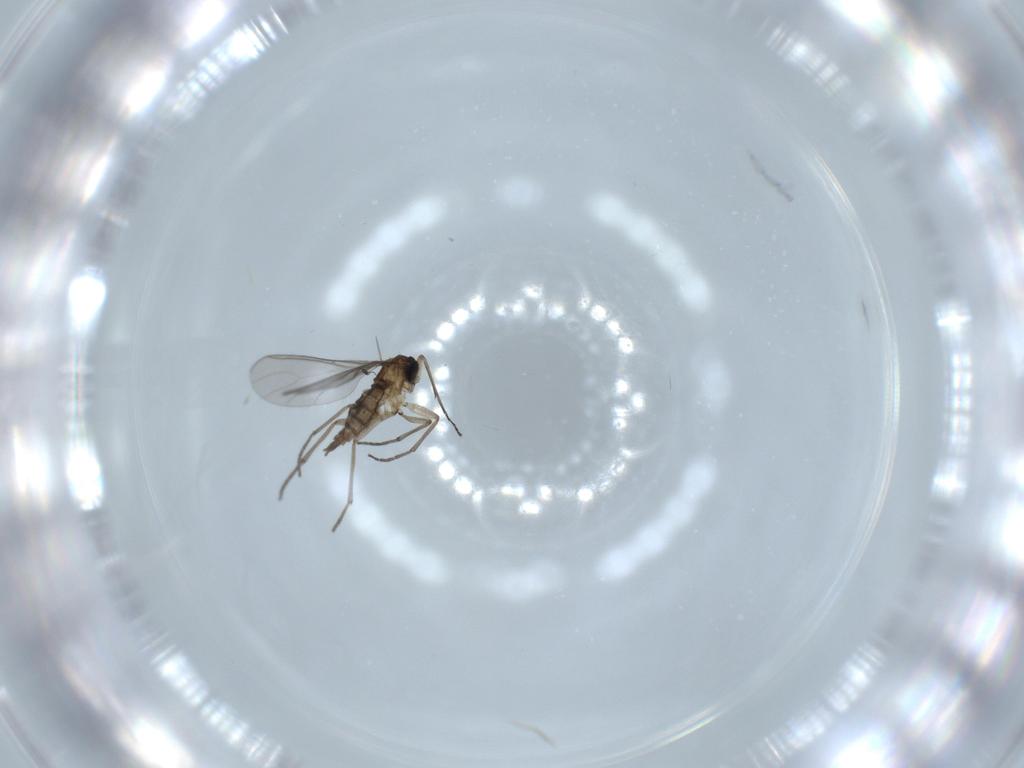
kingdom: Animalia
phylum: Arthropoda
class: Insecta
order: Diptera
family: Sciaridae
